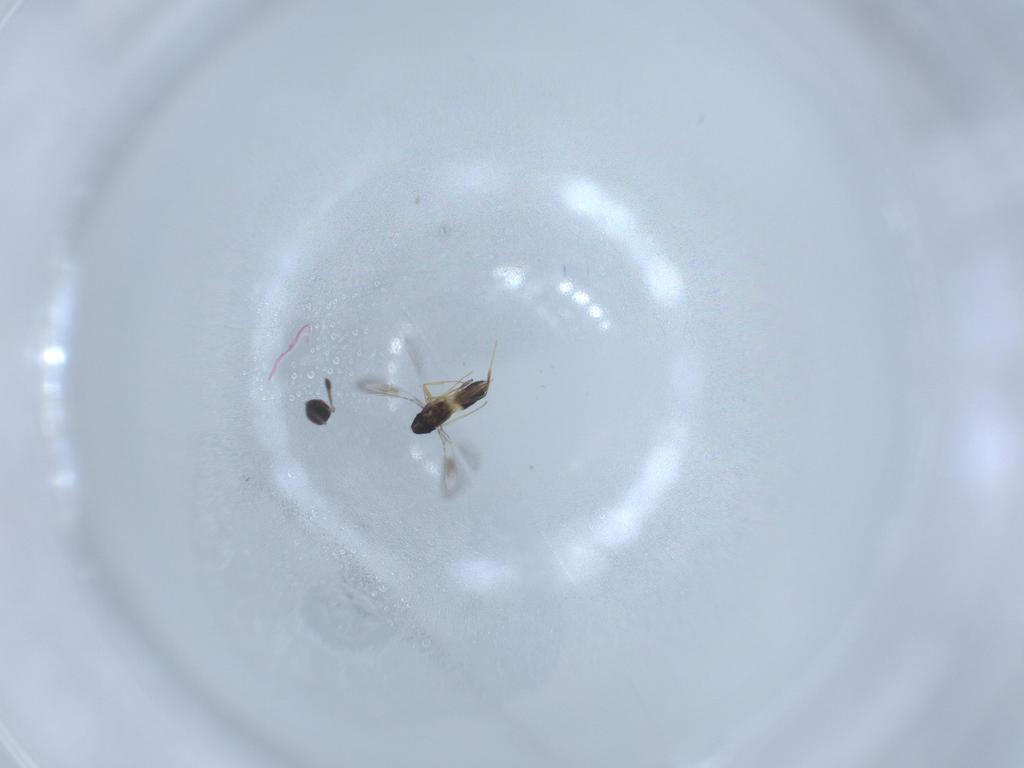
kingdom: Animalia
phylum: Arthropoda
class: Insecta
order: Hymenoptera
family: Mymaridae
